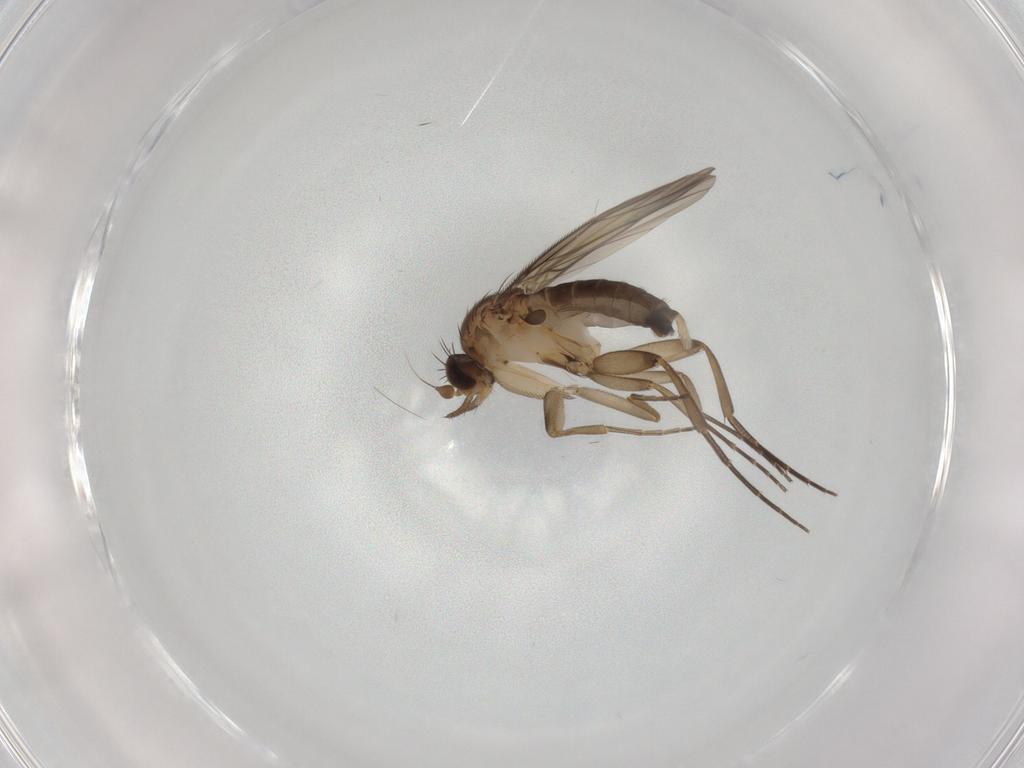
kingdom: Animalia
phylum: Arthropoda
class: Insecta
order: Diptera
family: Phoridae
